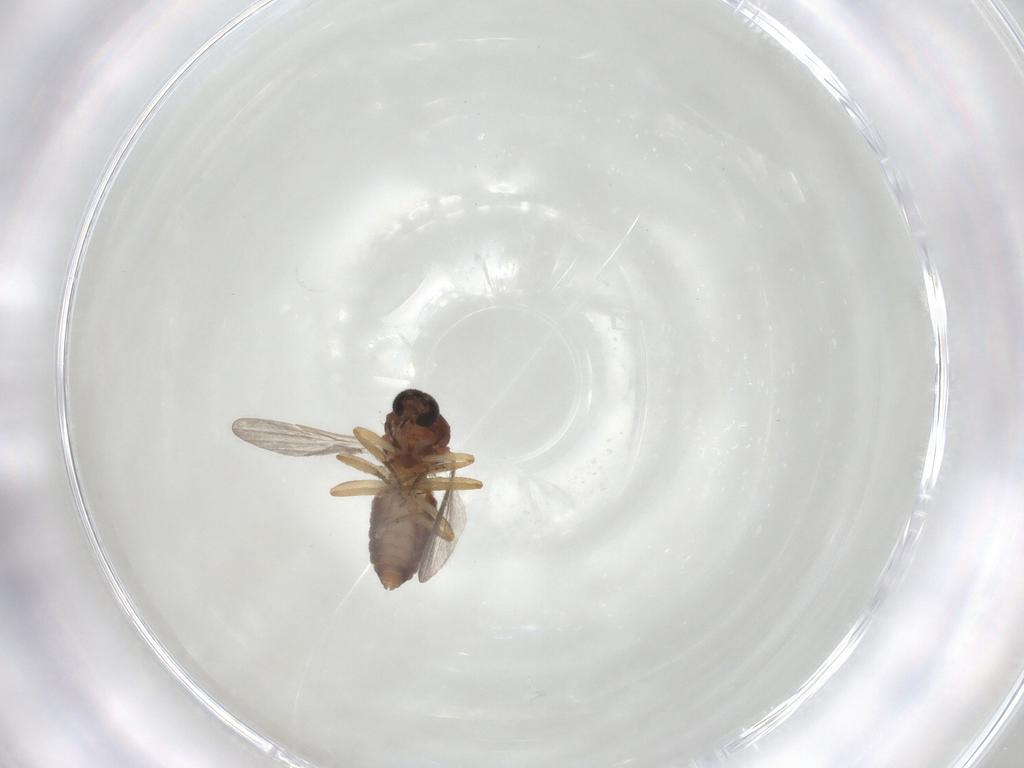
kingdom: Animalia
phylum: Arthropoda
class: Insecta
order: Diptera
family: Ceratopogonidae
